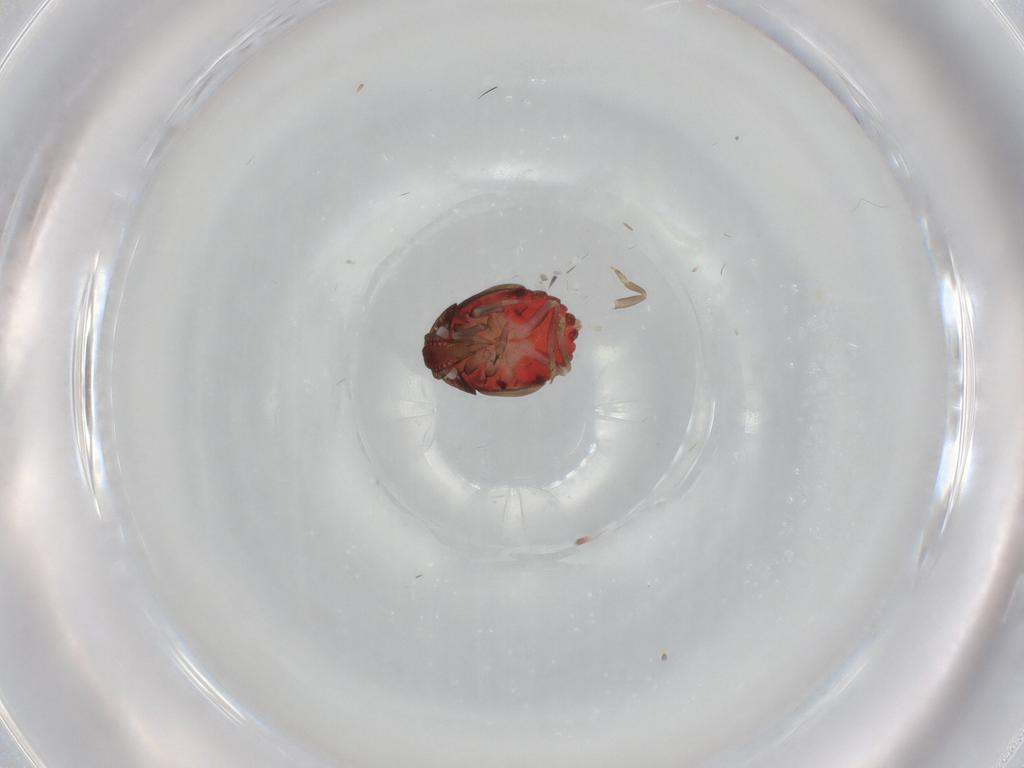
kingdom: Animalia
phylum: Arthropoda
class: Insecta
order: Hemiptera
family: Derbidae
